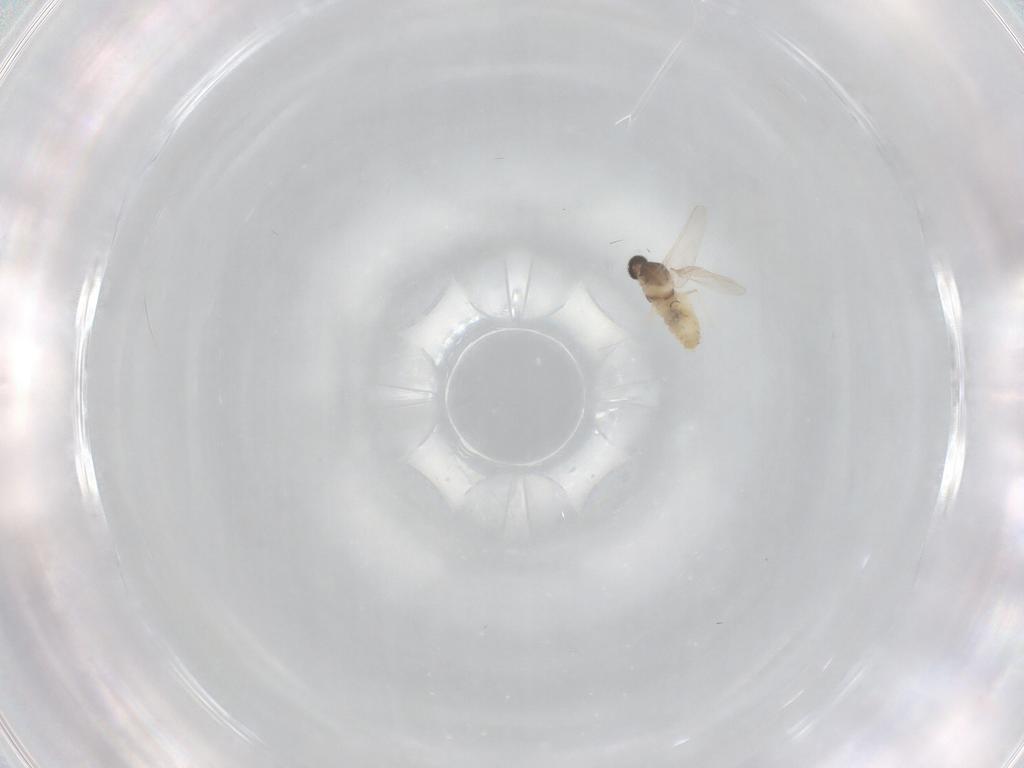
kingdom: Animalia
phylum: Arthropoda
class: Insecta
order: Diptera
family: Cecidomyiidae
